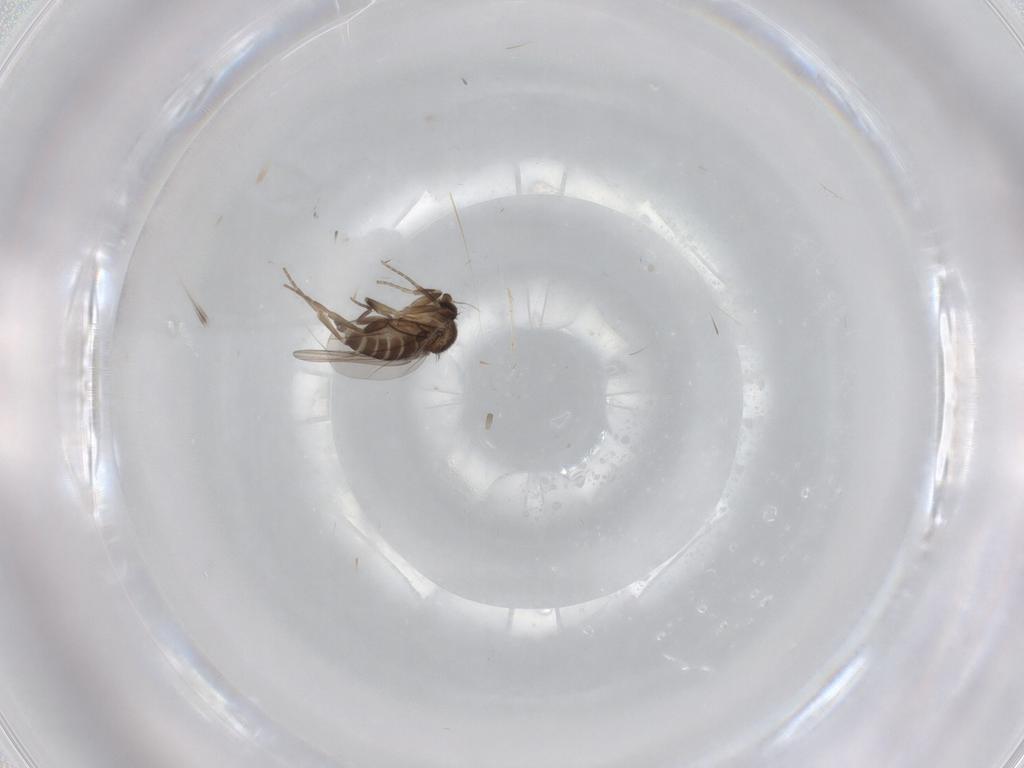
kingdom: Animalia
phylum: Arthropoda
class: Insecta
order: Diptera
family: Phoridae
